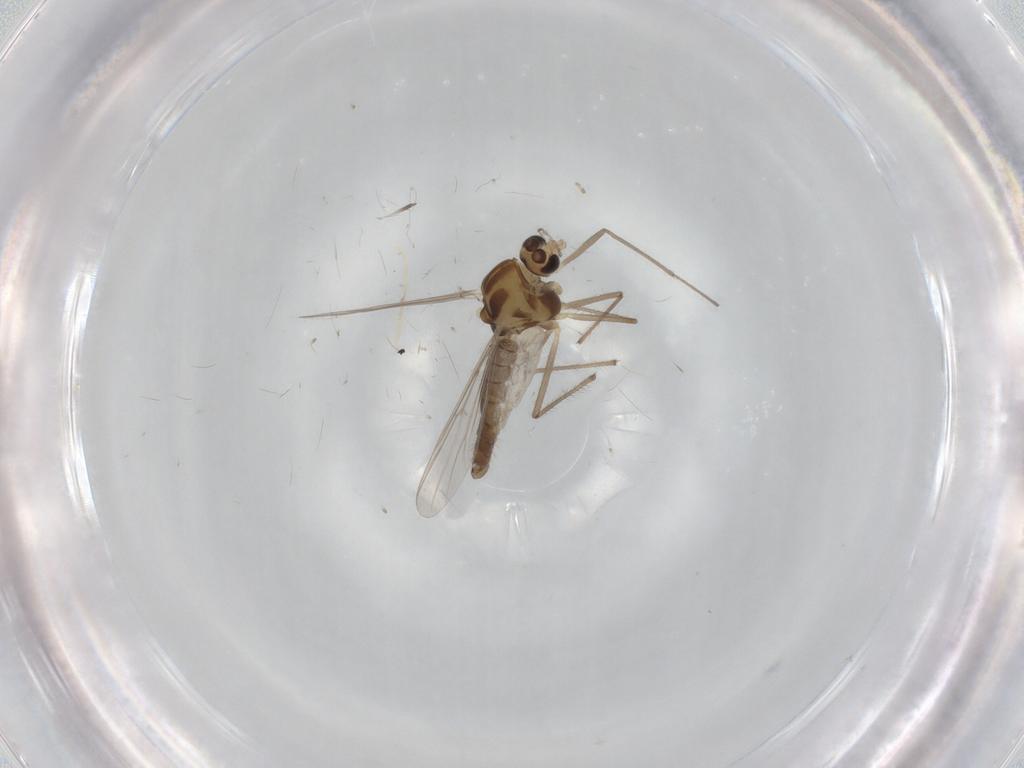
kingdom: Animalia
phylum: Arthropoda
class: Insecta
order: Diptera
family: Chironomidae
